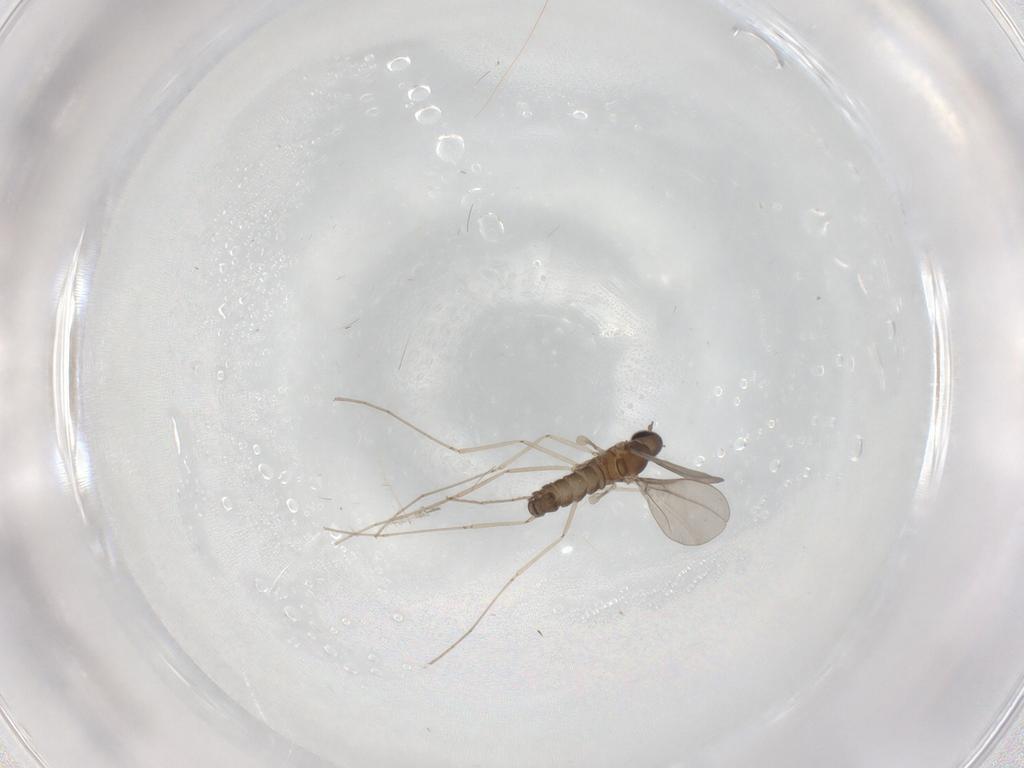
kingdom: Animalia
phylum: Arthropoda
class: Insecta
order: Diptera
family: Cecidomyiidae
